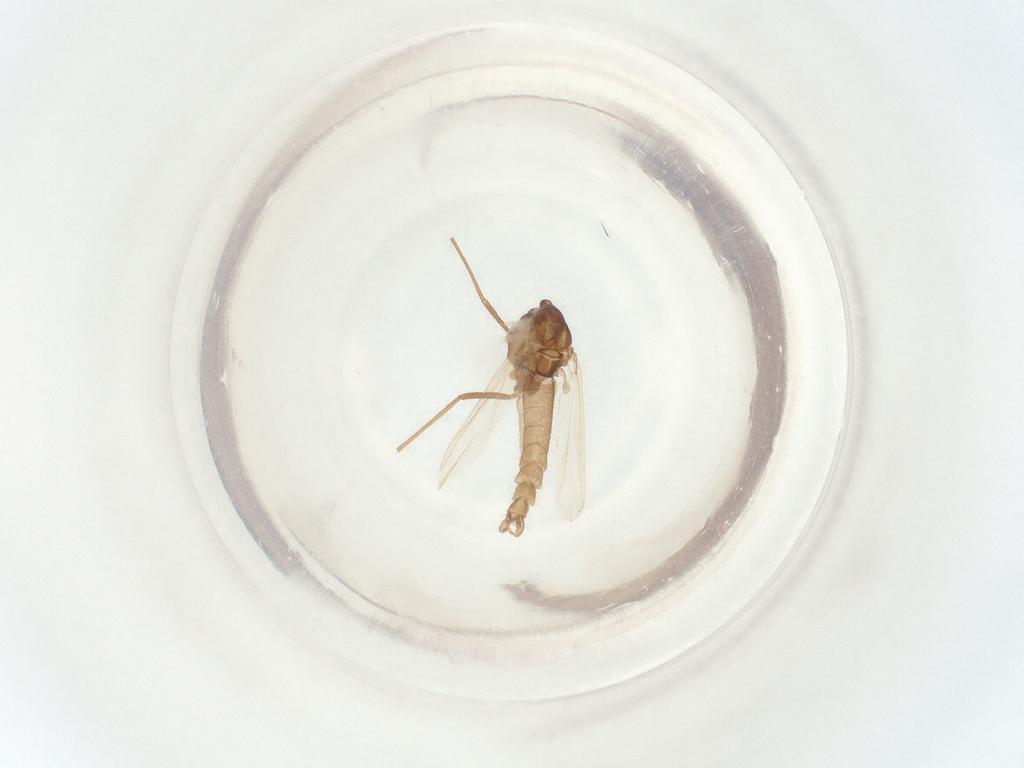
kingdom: Animalia
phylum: Arthropoda
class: Insecta
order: Diptera
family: Chironomidae
